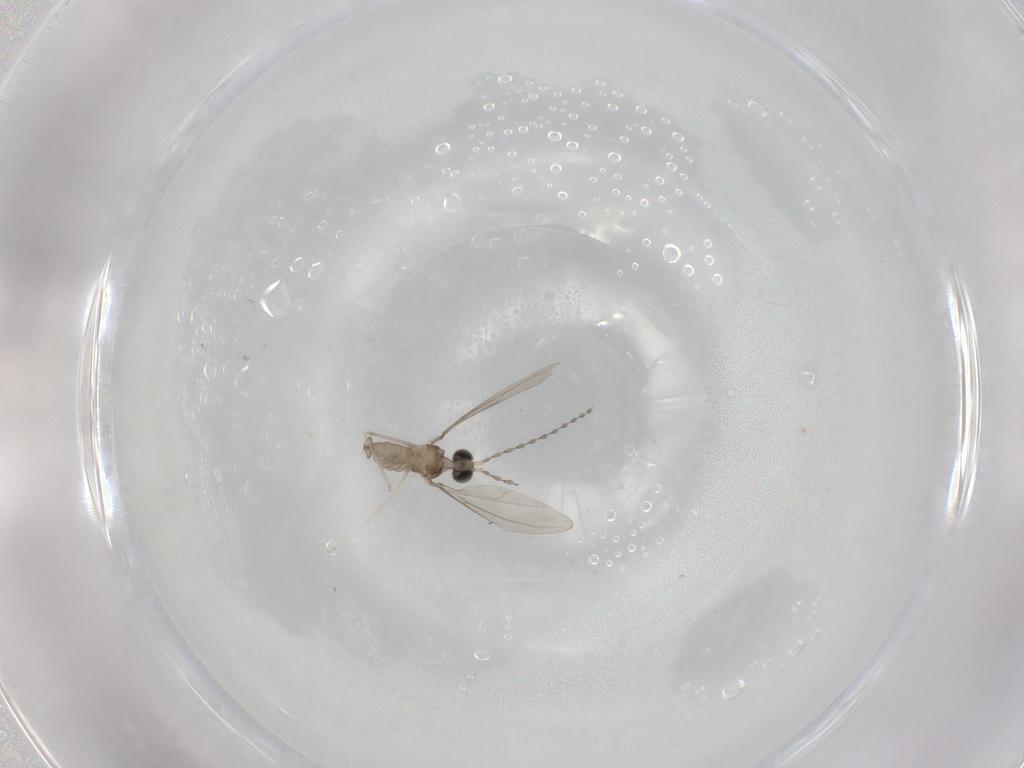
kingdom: Animalia
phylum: Arthropoda
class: Insecta
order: Diptera
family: Cecidomyiidae
